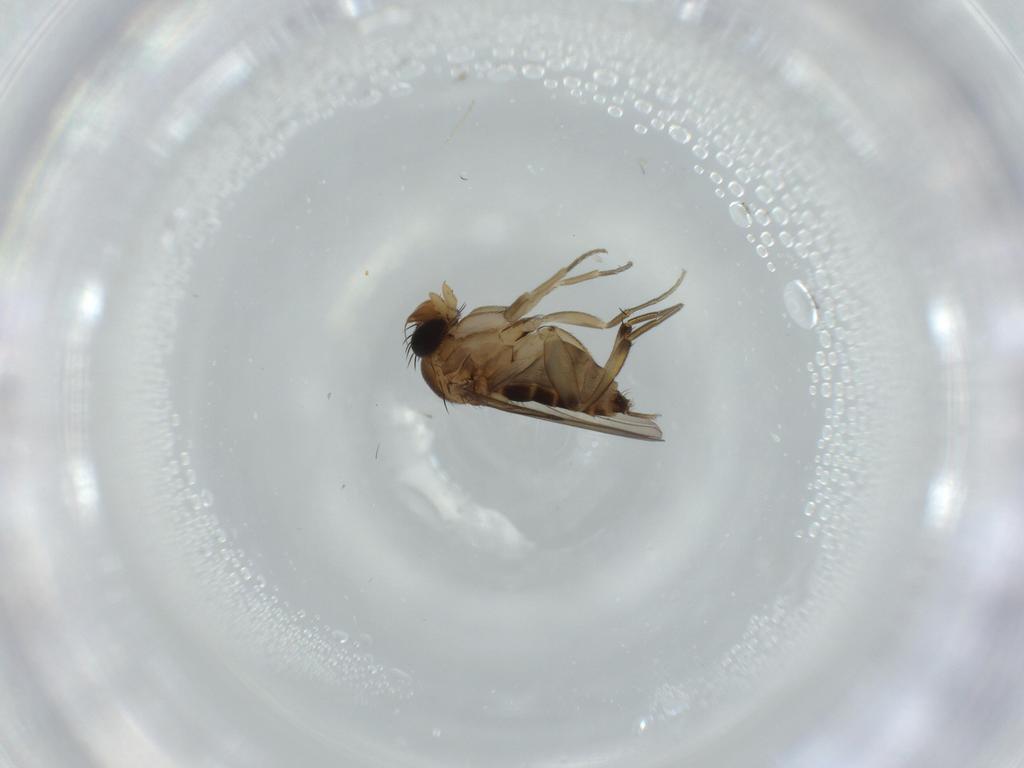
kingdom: Animalia
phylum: Arthropoda
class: Insecta
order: Diptera
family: Phoridae
